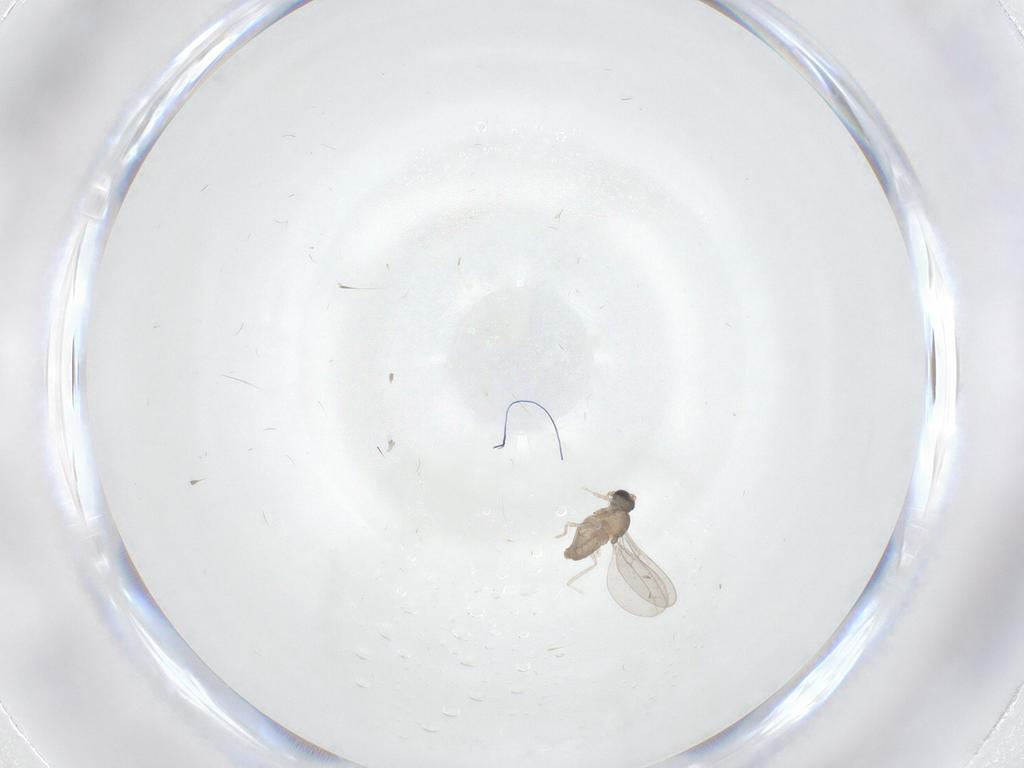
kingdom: Animalia
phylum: Arthropoda
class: Insecta
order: Diptera
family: Cecidomyiidae
